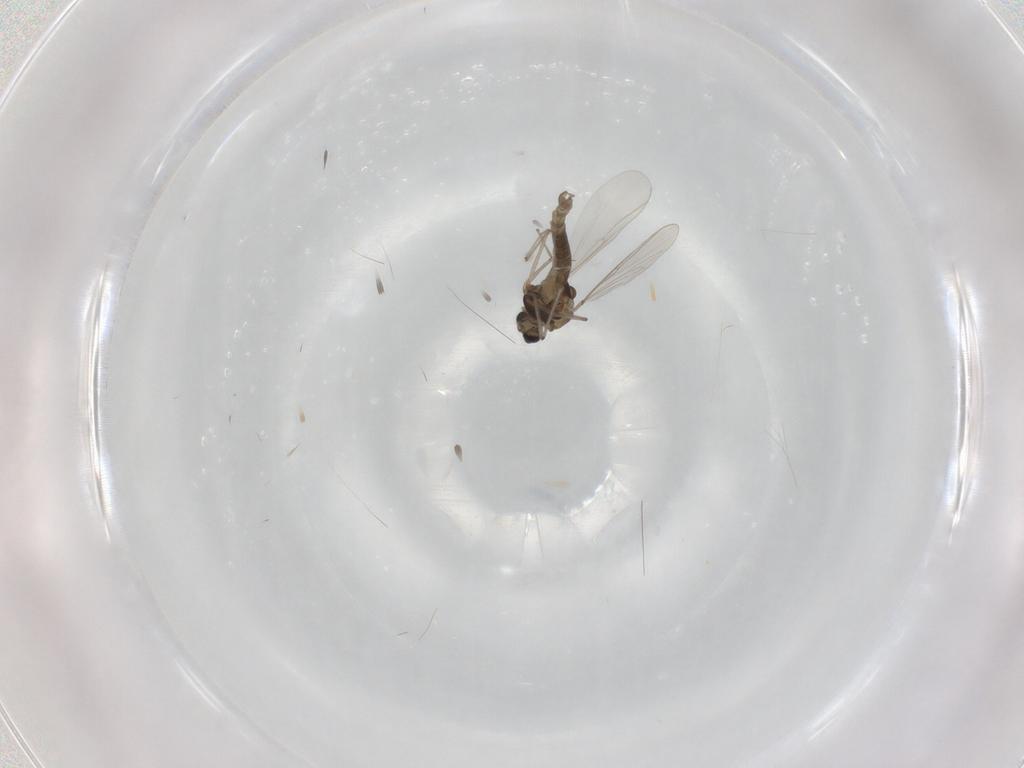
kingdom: Animalia
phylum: Arthropoda
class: Insecta
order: Diptera
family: Chironomidae
